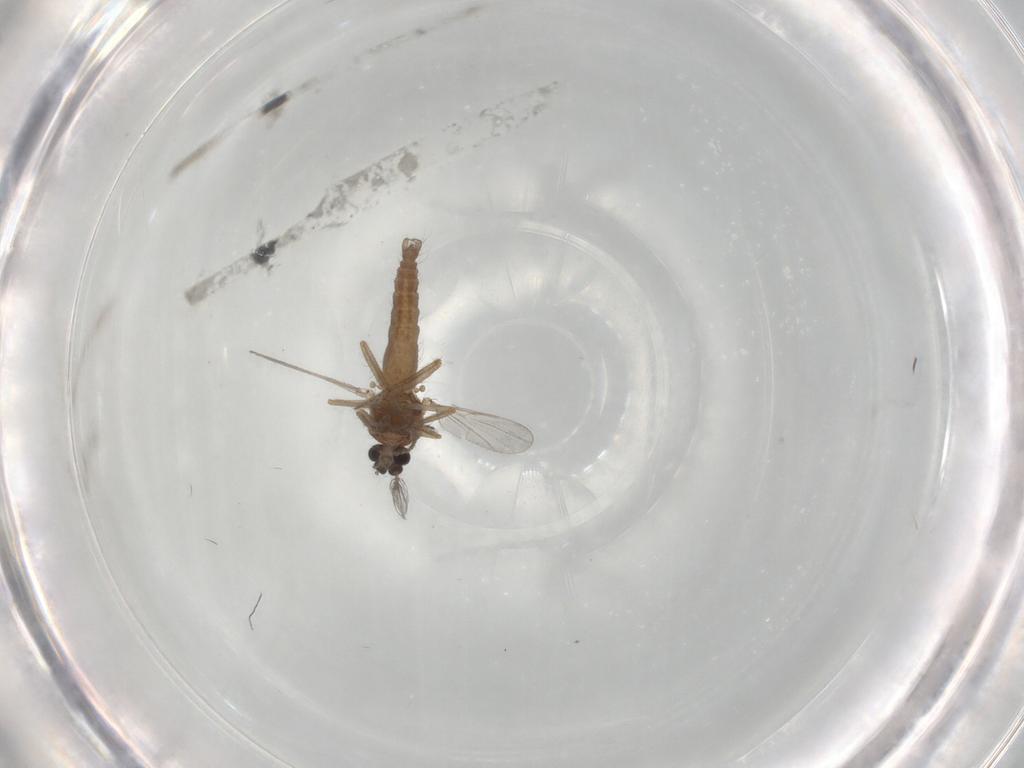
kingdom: Animalia
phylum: Arthropoda
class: Insecta
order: Diptera
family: Ceratopogonidae
